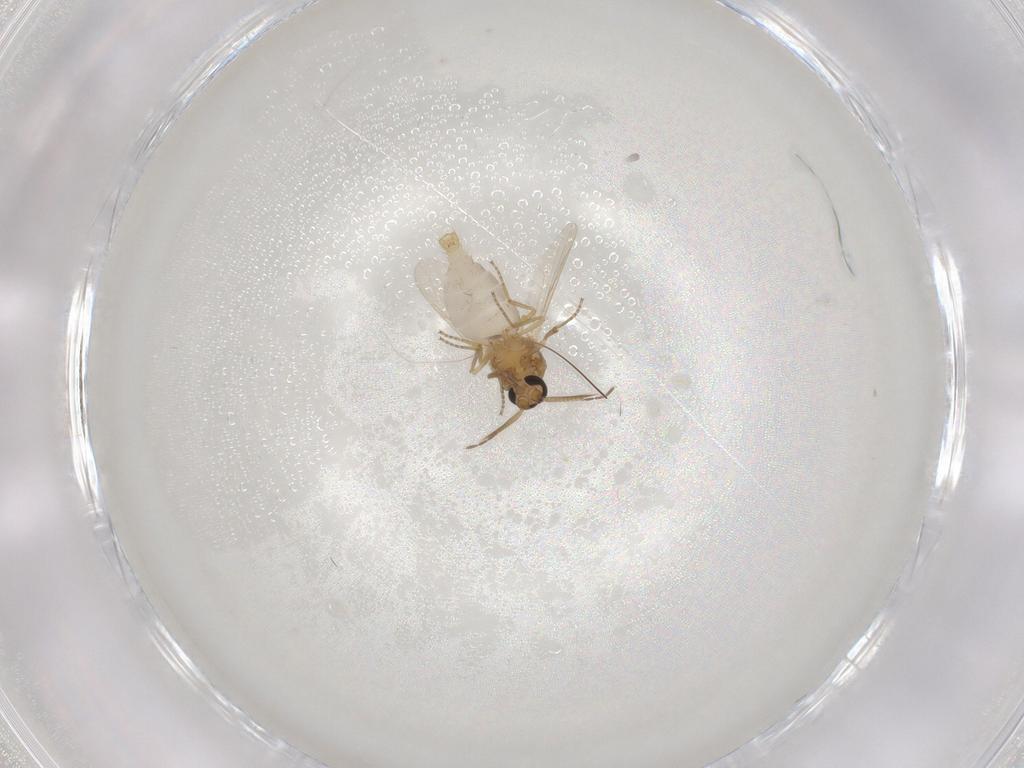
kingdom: Animalia
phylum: Arthropoda
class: Insecta
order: Diptera
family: Ceratopogonidae
